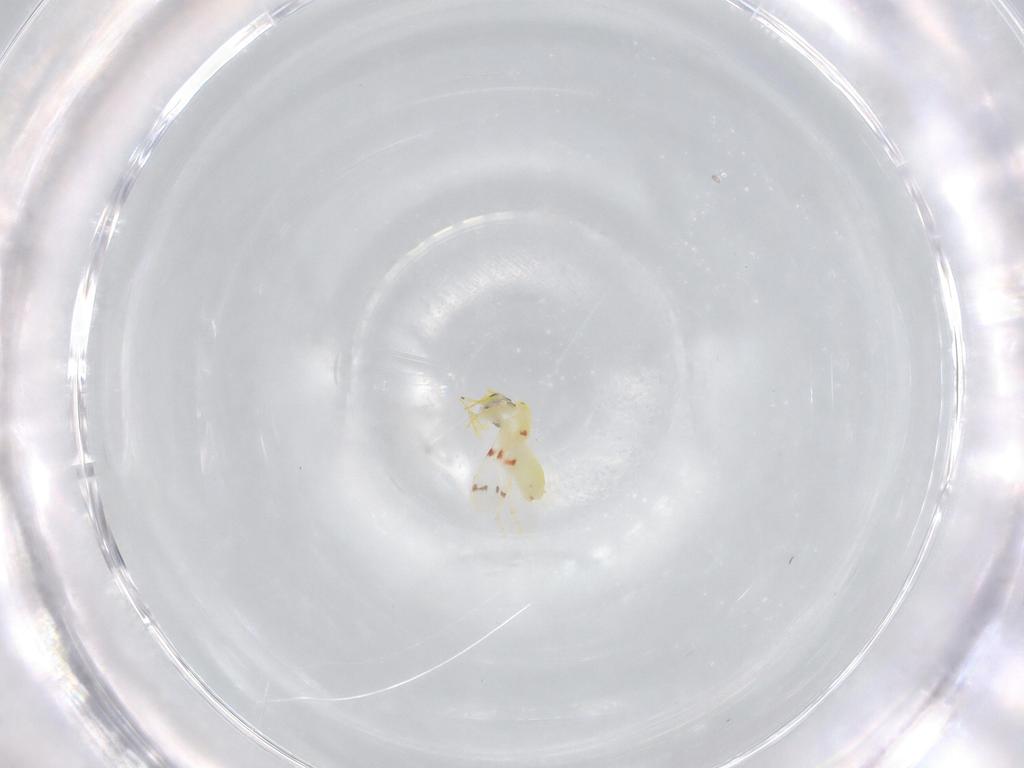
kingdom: Animalia
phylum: Arthropoda
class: Insecta
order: Hemiptera
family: Aleyrodidae
